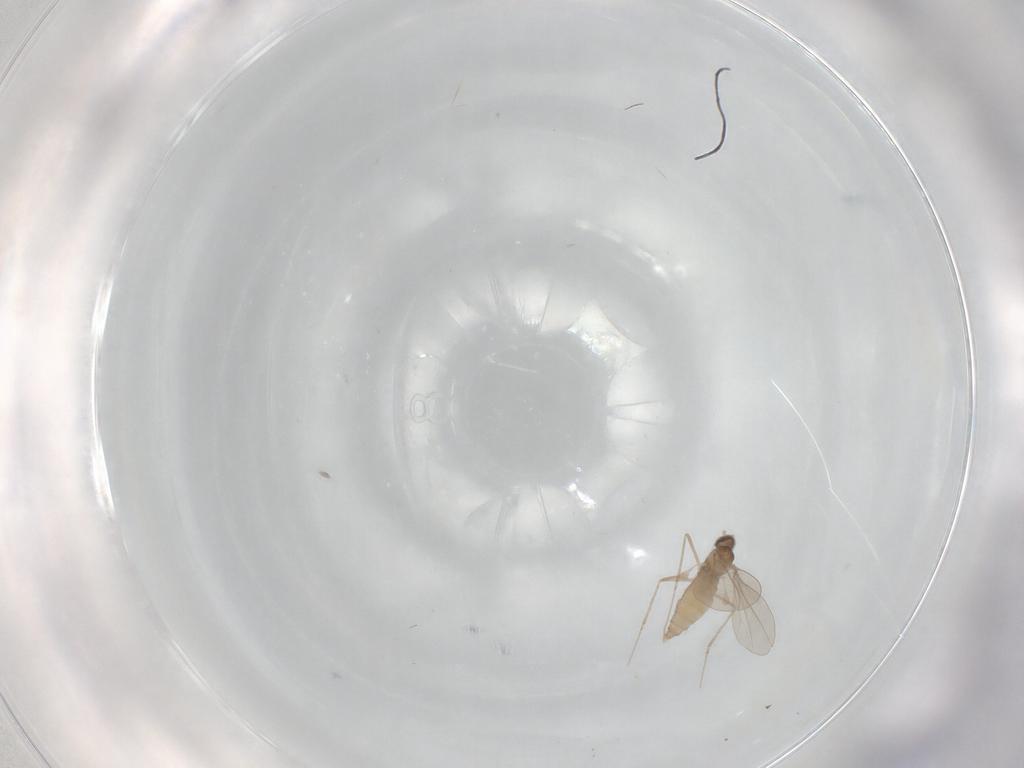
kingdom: Animalia
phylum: Arthropoda
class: Insecta
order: Diptera
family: Cecidomyiidae
